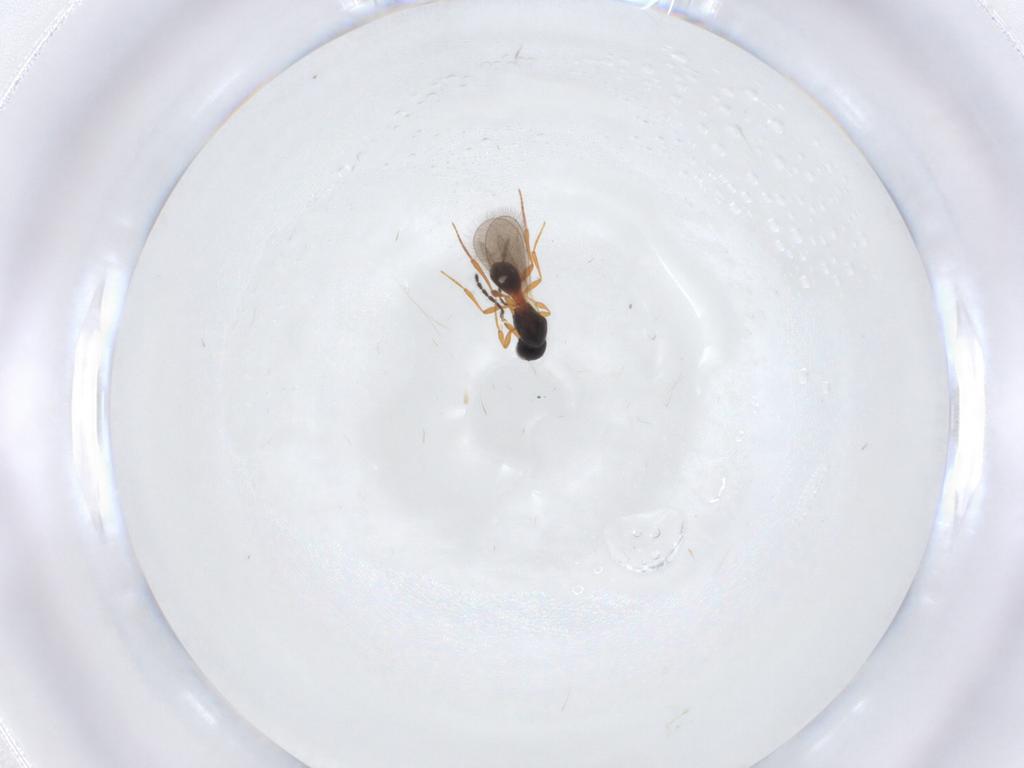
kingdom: Animalia
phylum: Arthropoda
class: Insecta
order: Hymenoptera
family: Platygastridae
